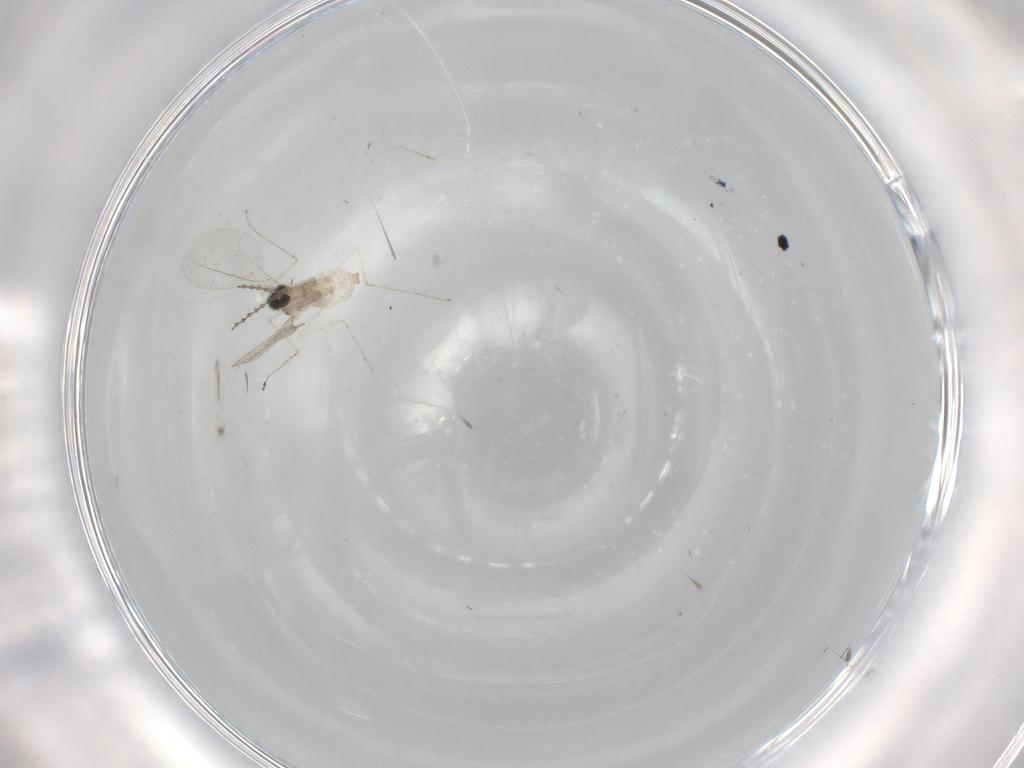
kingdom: Animalia
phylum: Arthropoda
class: Insecta
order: Diptera
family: Cecidomyiidae
